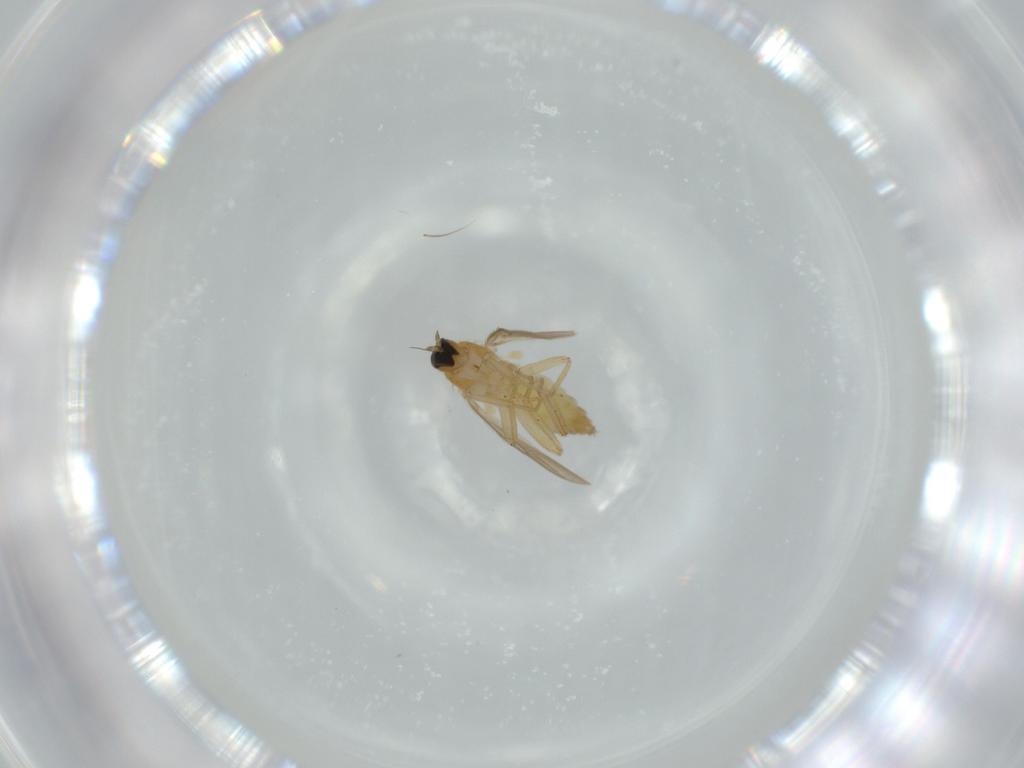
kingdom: Animalia
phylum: Arthropoda
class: Insecta
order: Diptera
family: Hybotidae
